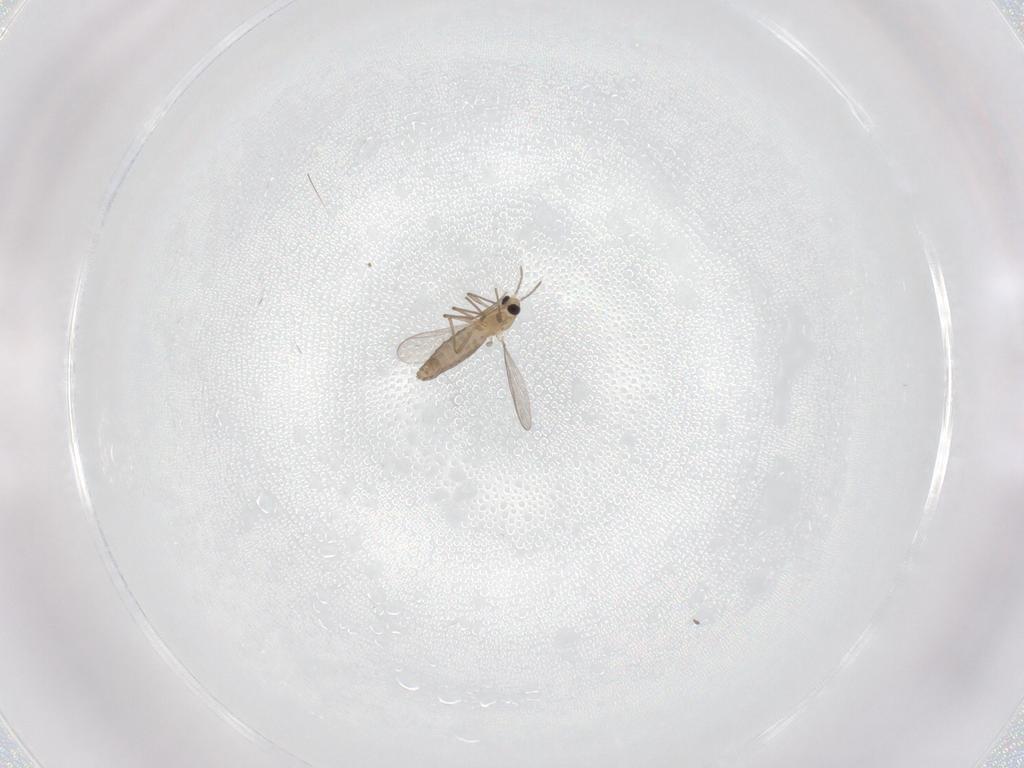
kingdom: Animalia
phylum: Arthropoda
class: Insecta
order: Diptera
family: Chironomidae
